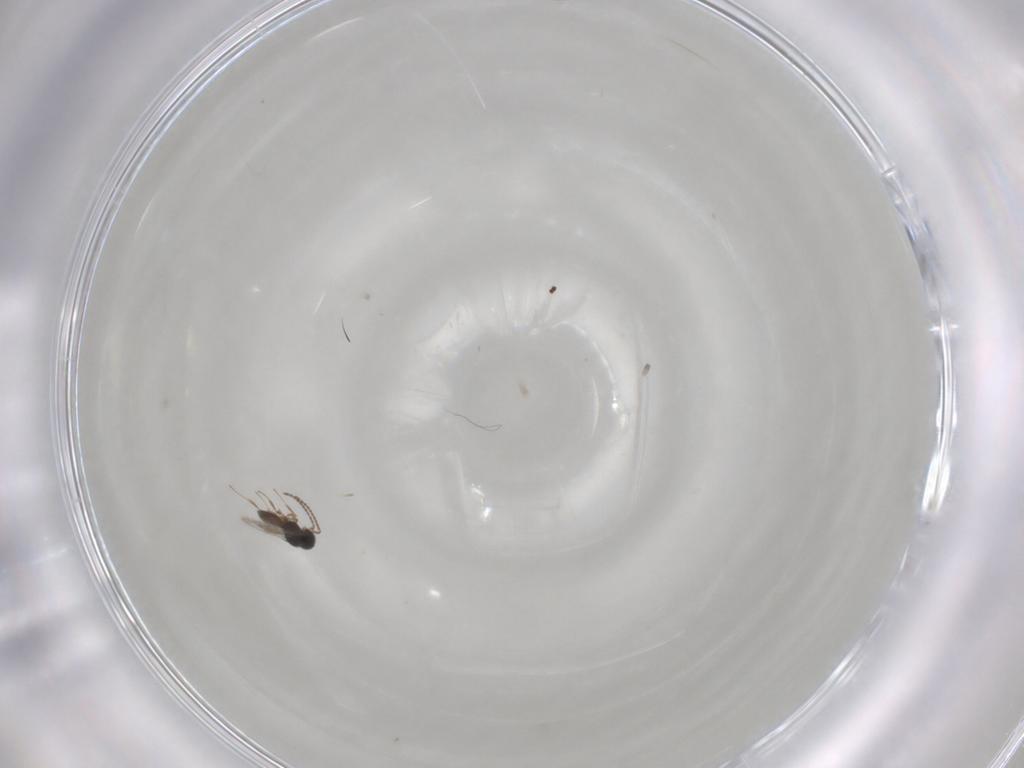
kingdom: Animalia
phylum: Arthropoda
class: Insecta
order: Hymenoptera
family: Scelionidae
